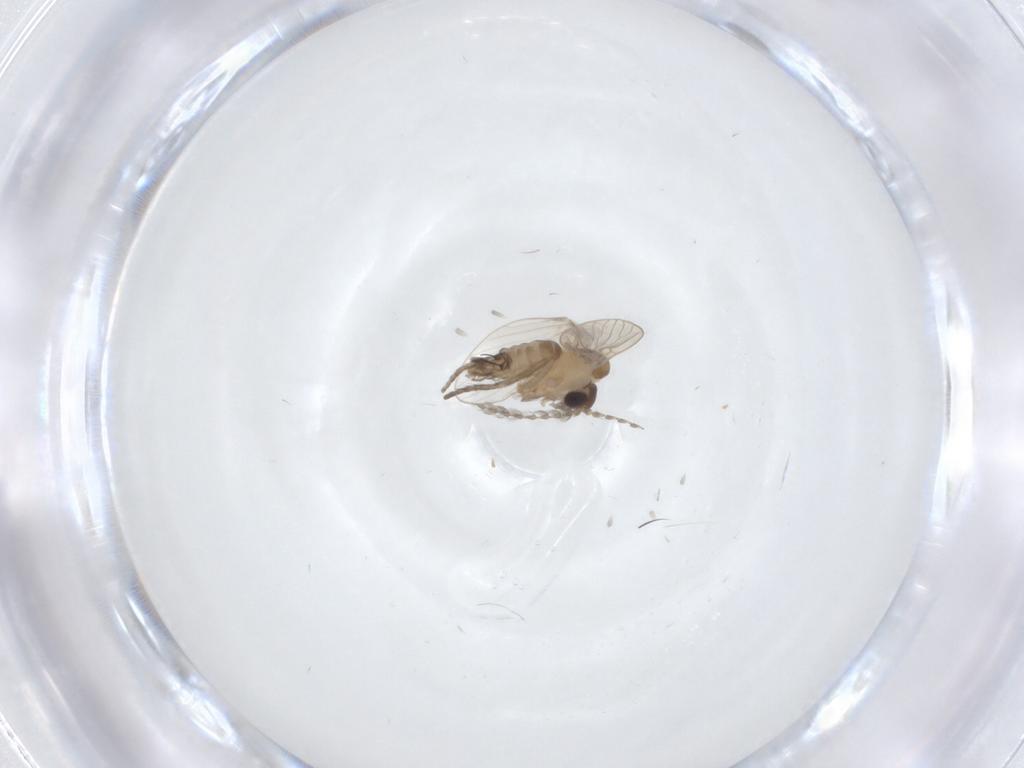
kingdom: Animalia
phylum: Arthropoda
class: Insecta
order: Diptera
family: Psychodidae
